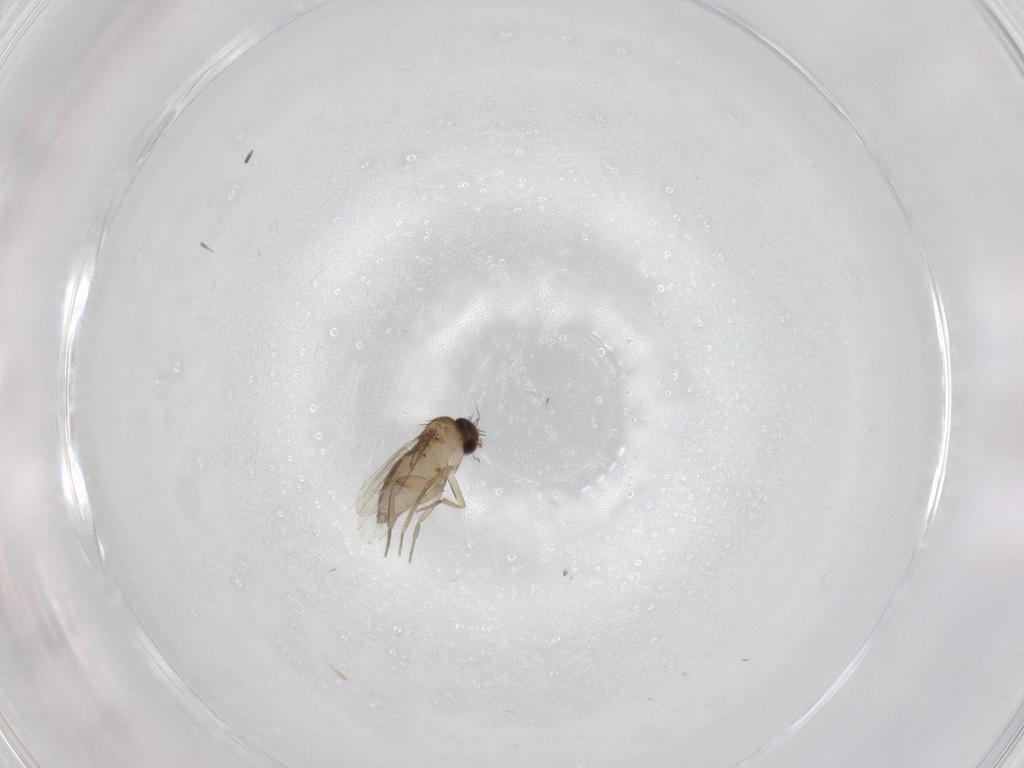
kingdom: Animalia
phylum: Arthropoda
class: Insecta
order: Diptera
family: Phoridae
